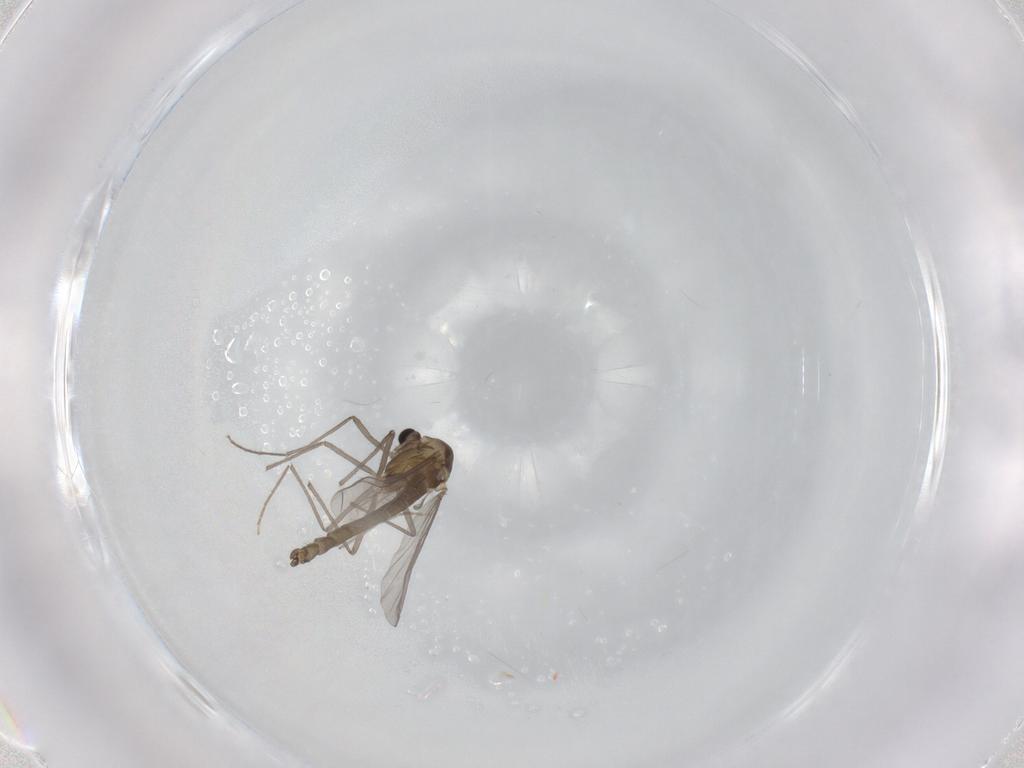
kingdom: Animalia
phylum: Arthropoda
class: Insecta
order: Diptera
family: Chironomidae
